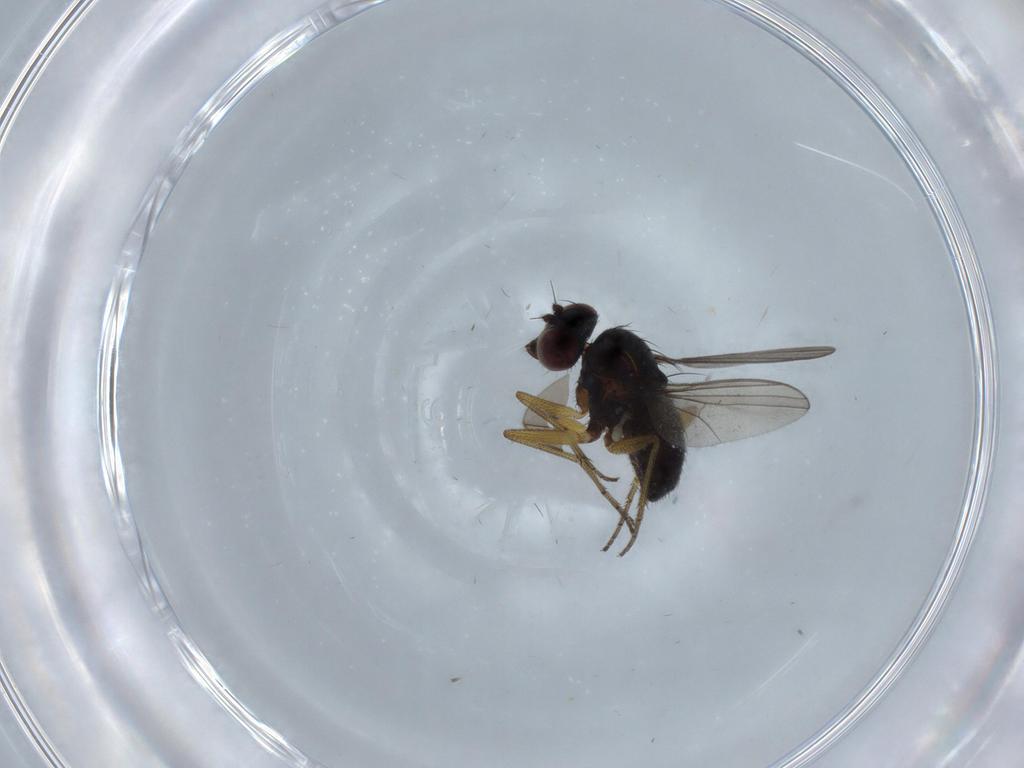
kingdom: Animalia
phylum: Arthropoda
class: Insecta
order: Diptera
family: Dolichopodidae
